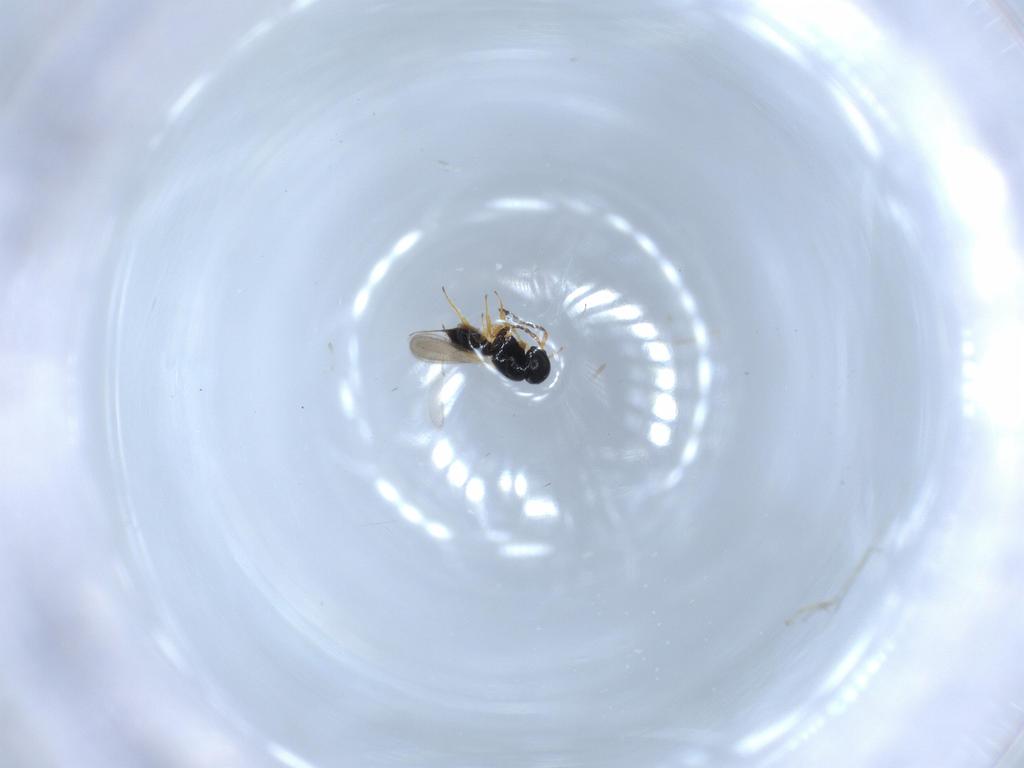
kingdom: Animalia
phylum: Arthropoda
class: Insecta
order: Hymenoptera
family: Scelionidae
